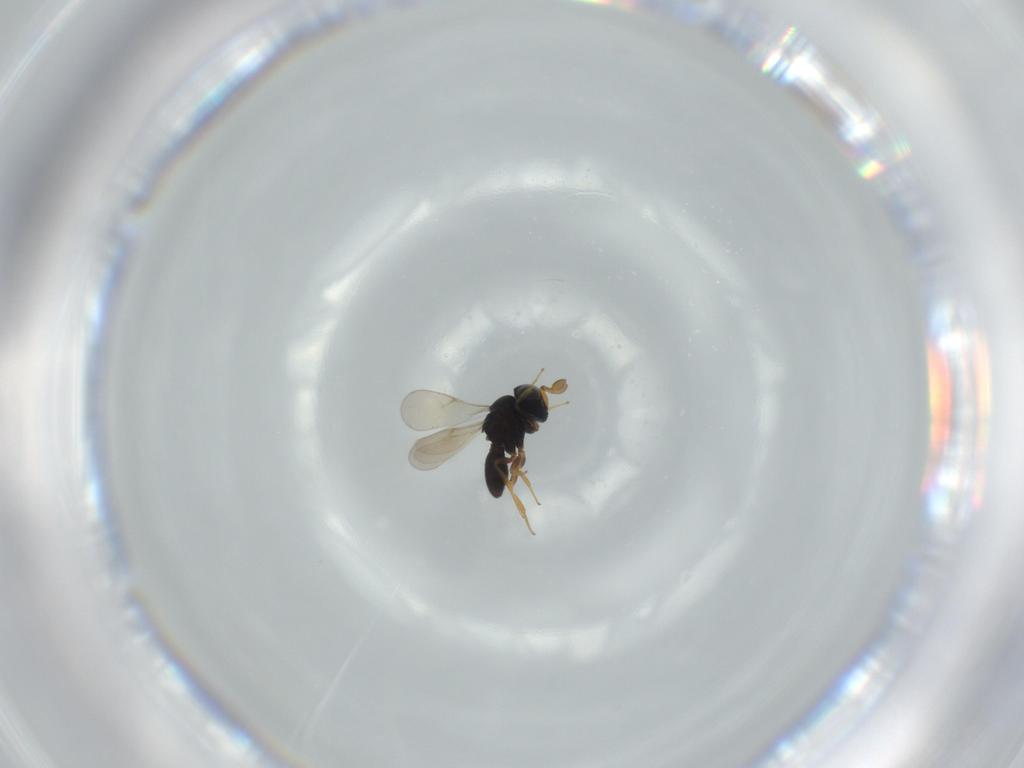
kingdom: Animalia
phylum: Arthropoda
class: Insecta
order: Hymenoptera
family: Scelionidae
